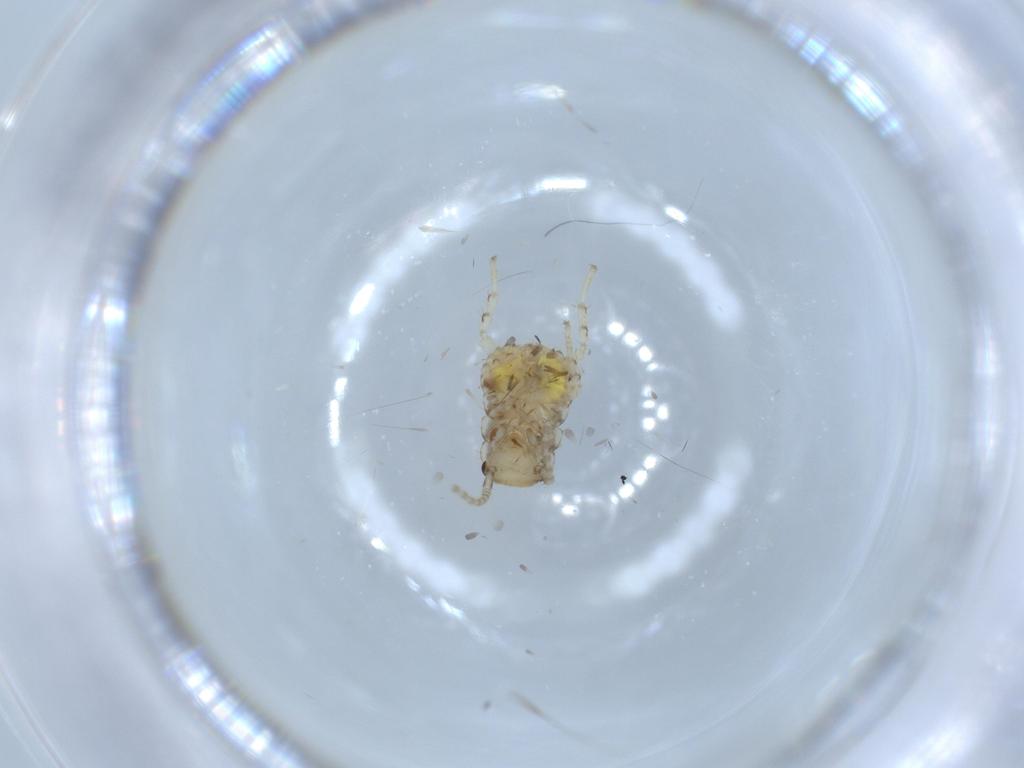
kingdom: Animalia
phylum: Arthropoda
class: Insecta
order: Blattodea
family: Ectobiidae
